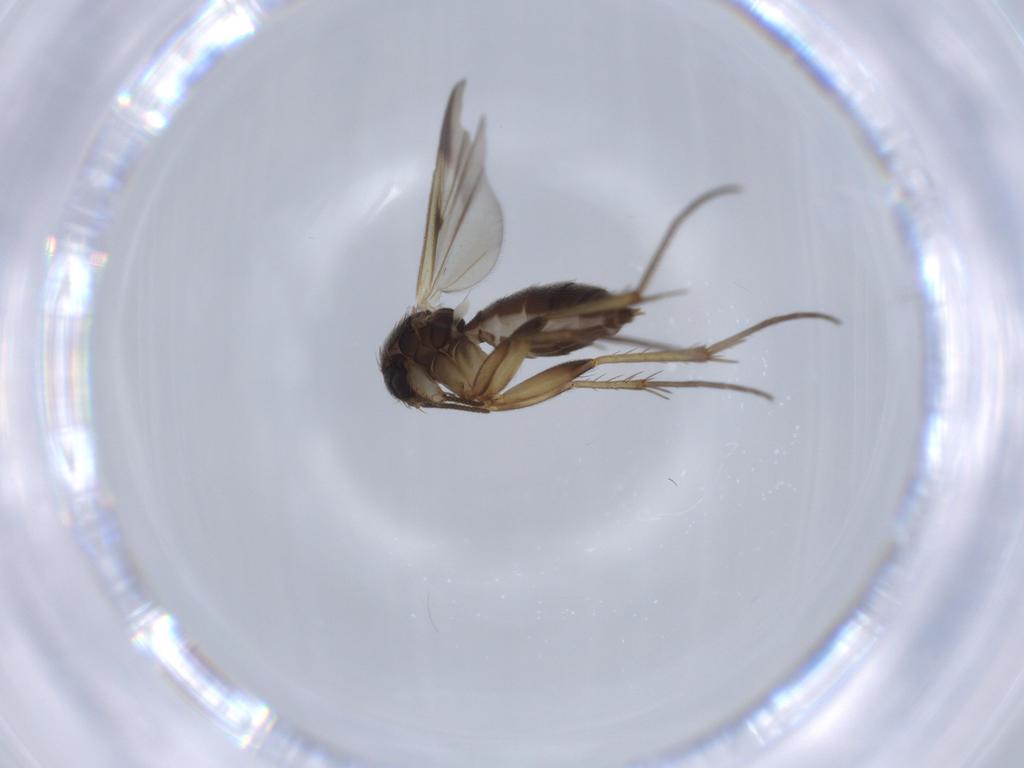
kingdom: Animalia
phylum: Arthropoda
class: Insecta
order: Diptera
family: Mycetophilidae
